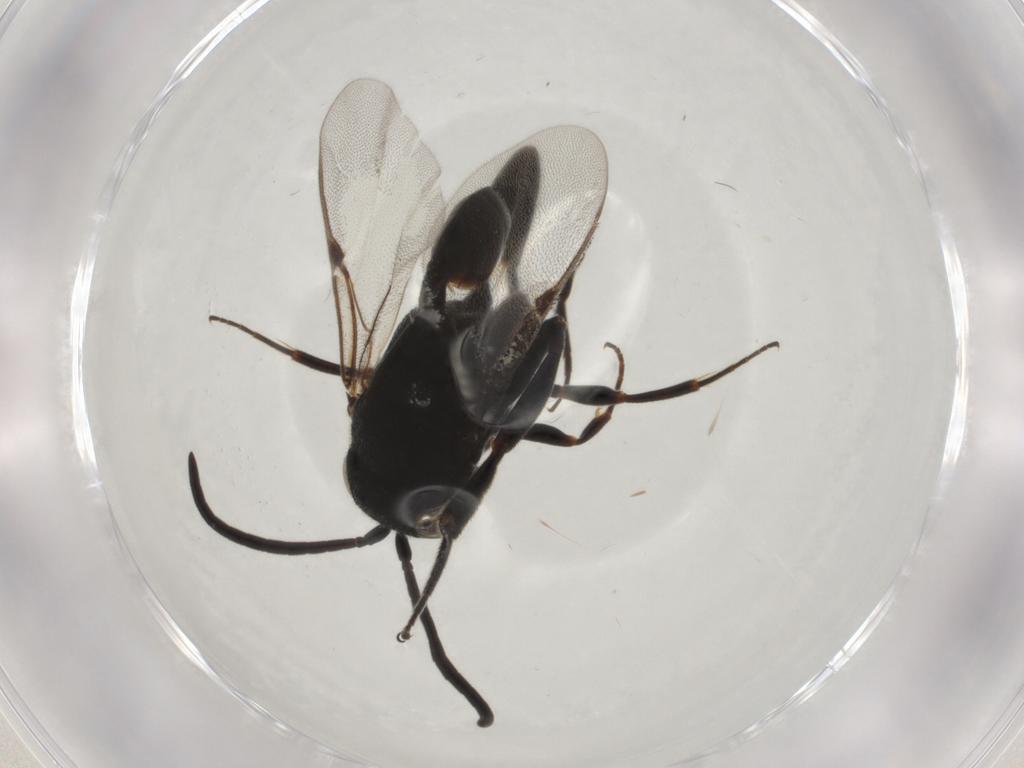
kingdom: Animalia
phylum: Arthropoda
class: Insecta
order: Hymenoptera
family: Evaniidae
